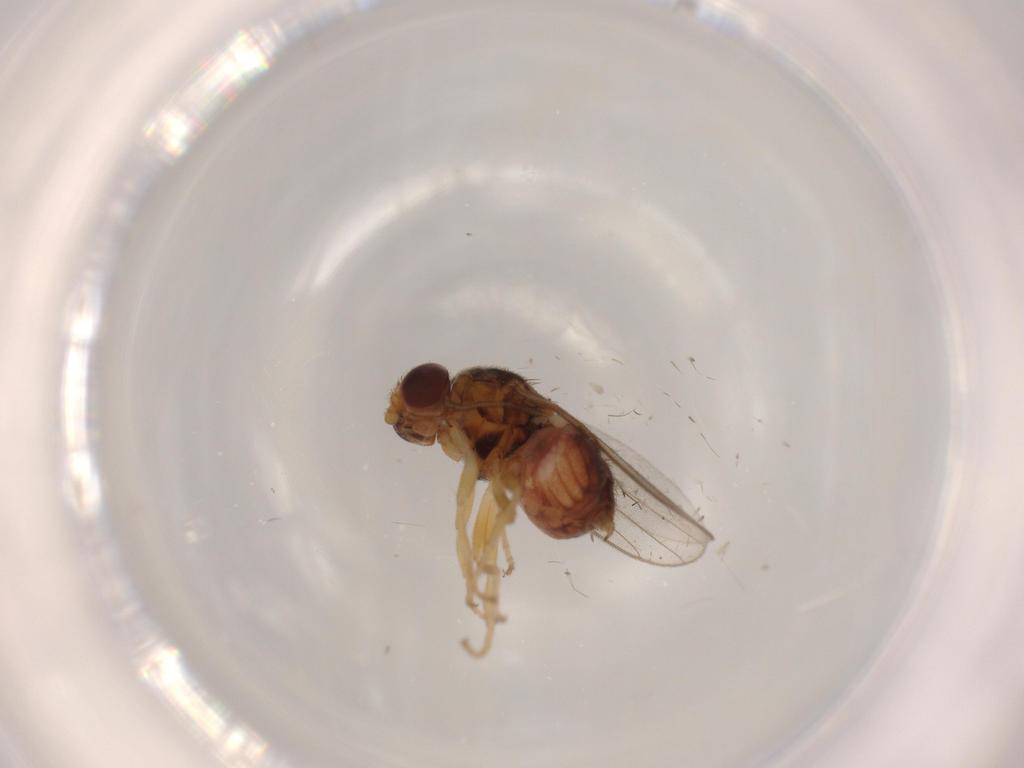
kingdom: Animalia
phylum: Arthropoda
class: Insecta
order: Diptera
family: Chloropidae
